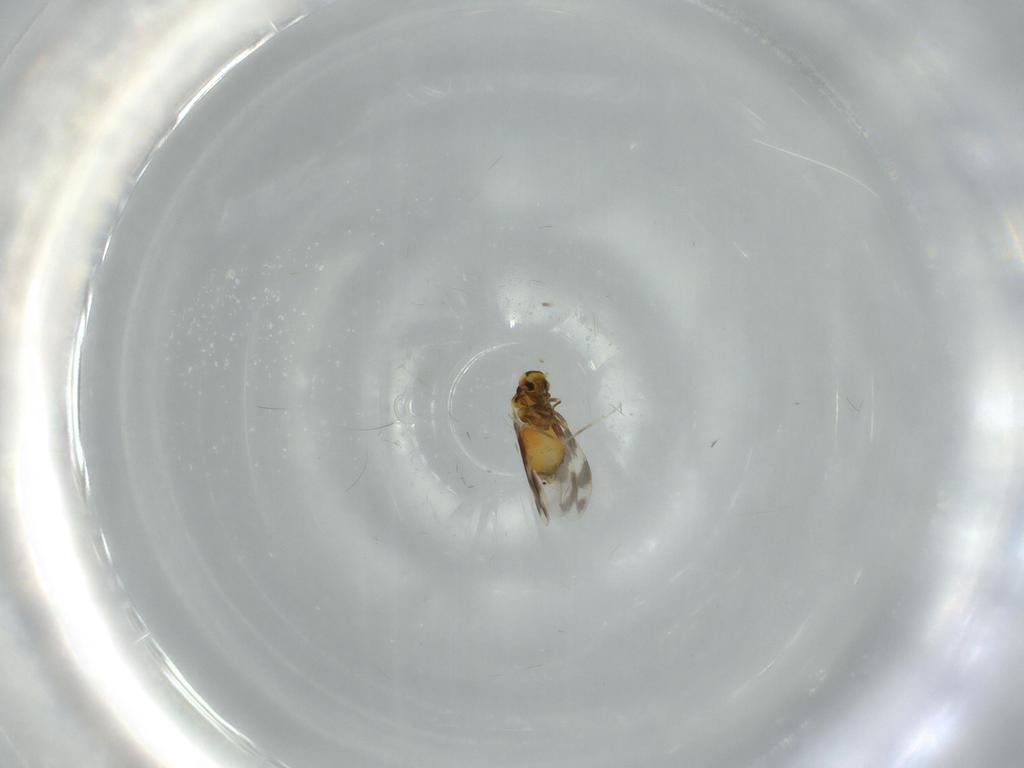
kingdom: Animalia
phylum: Arthropoda
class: Insecta
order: Hemiptera
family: Aleyrodidae
